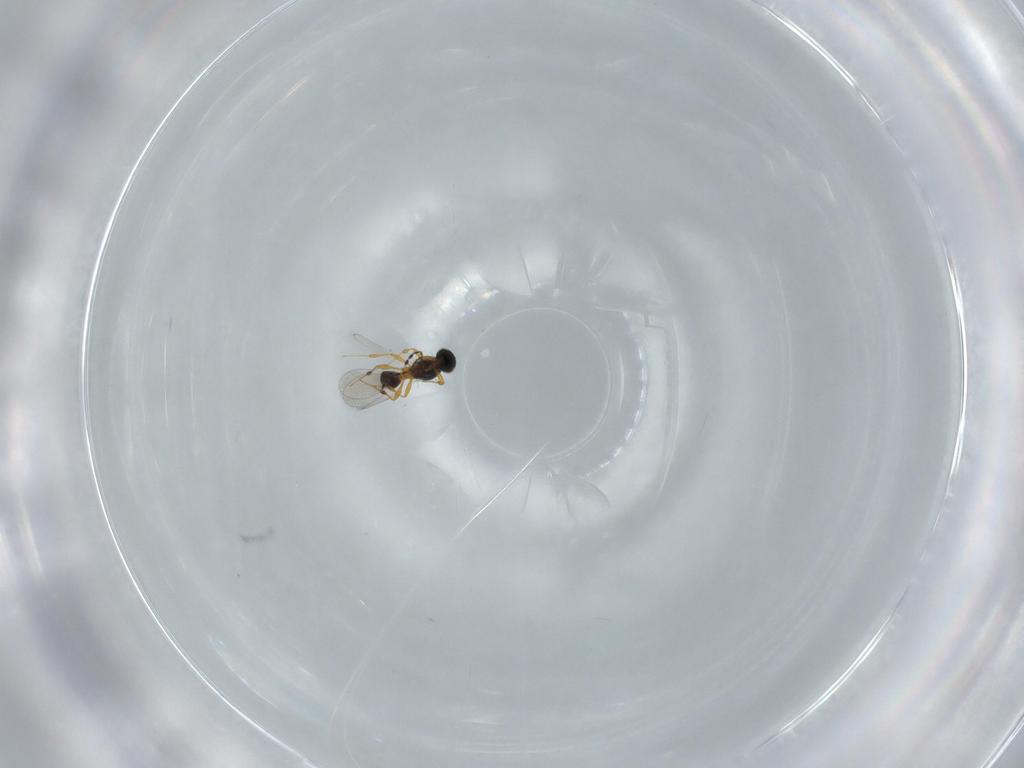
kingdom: Animalia
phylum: Arthropoda
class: Insecta
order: Hymenoptera
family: Platygastridae
